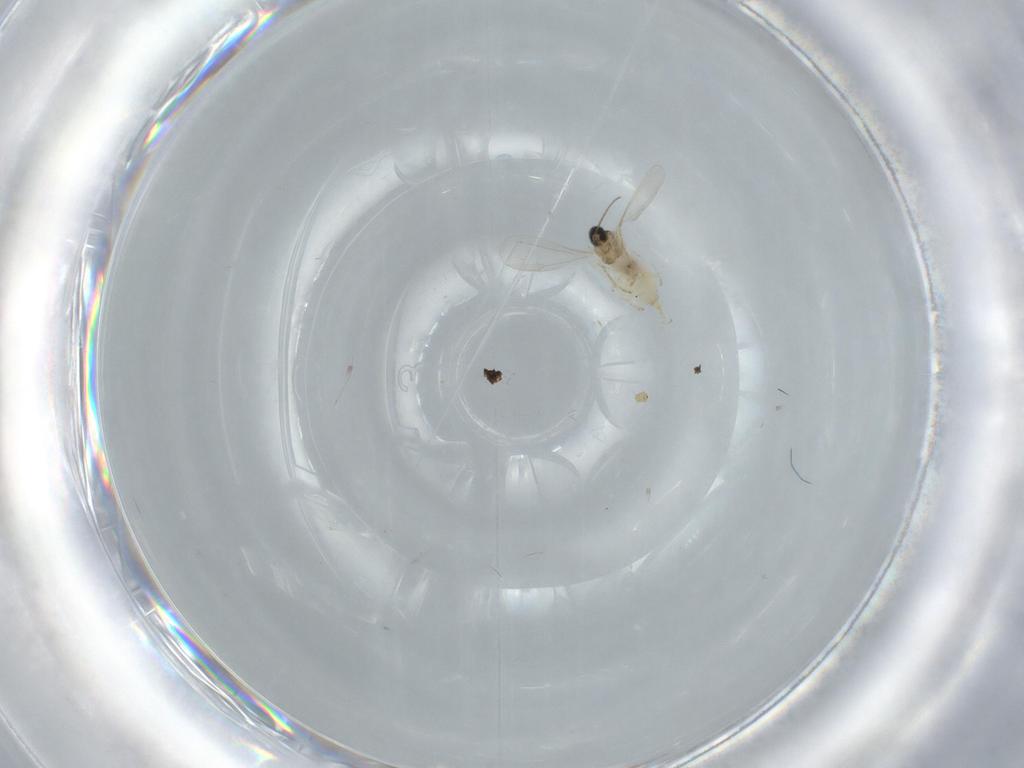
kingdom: Animalia
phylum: Arthropoda
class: Insecta
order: Diptera
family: Cecidomyiidae
